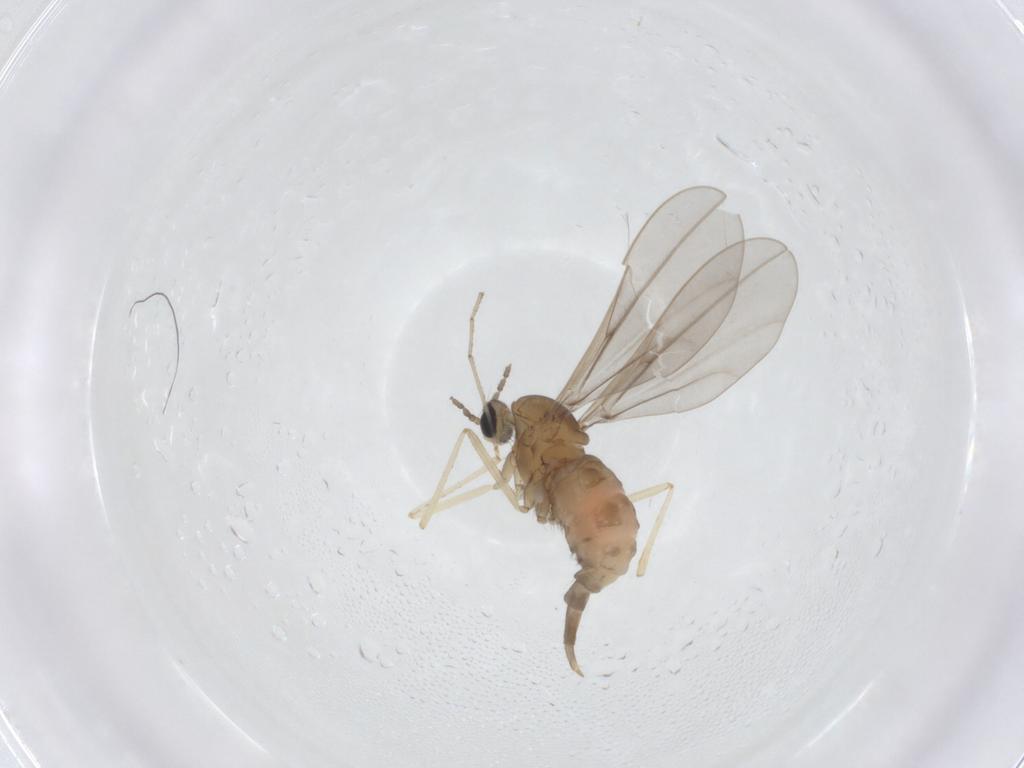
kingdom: Animalia
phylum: Arthropoda
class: Insecta
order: Diptera
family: Cecidomyiidae
